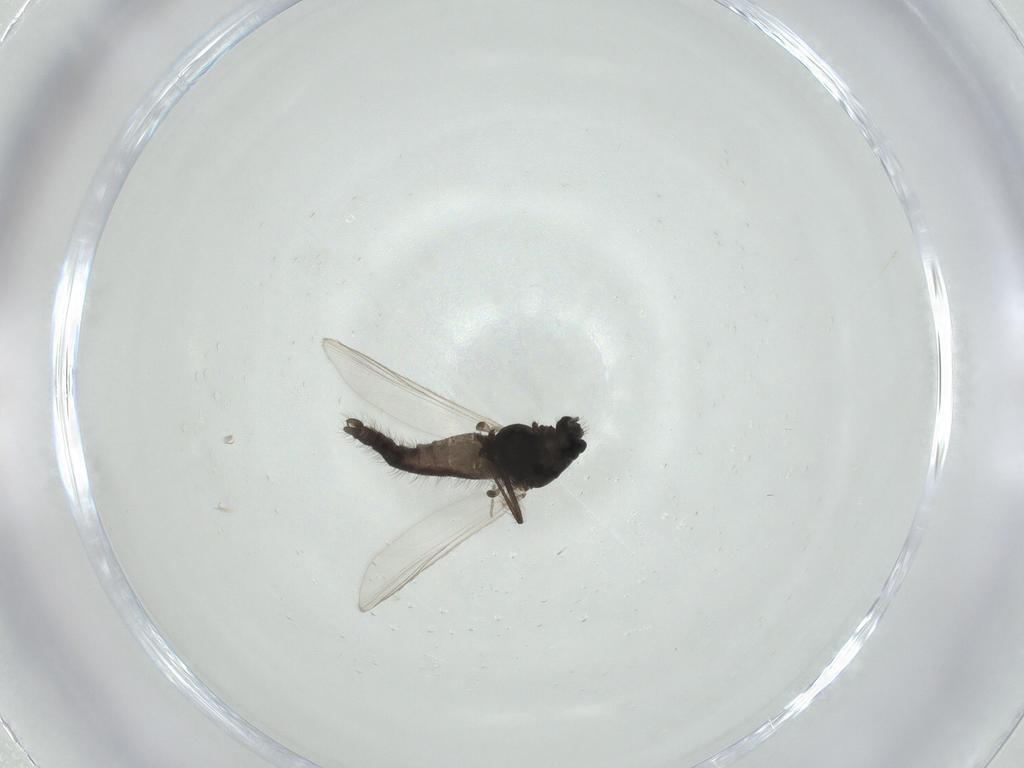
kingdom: Animalia
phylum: Arthropoda
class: Insecta
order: Diptera
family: Chironomidae
